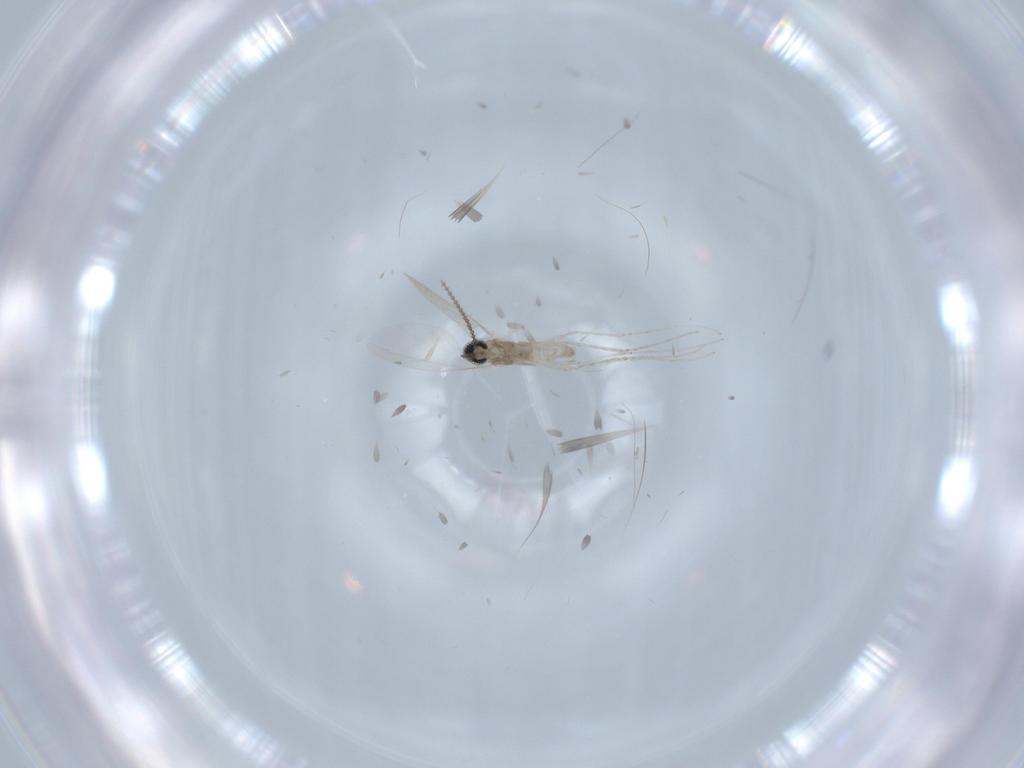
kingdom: Animalia
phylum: Arthropoda
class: Insecta
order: Diptera
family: Cecidomyiidae
